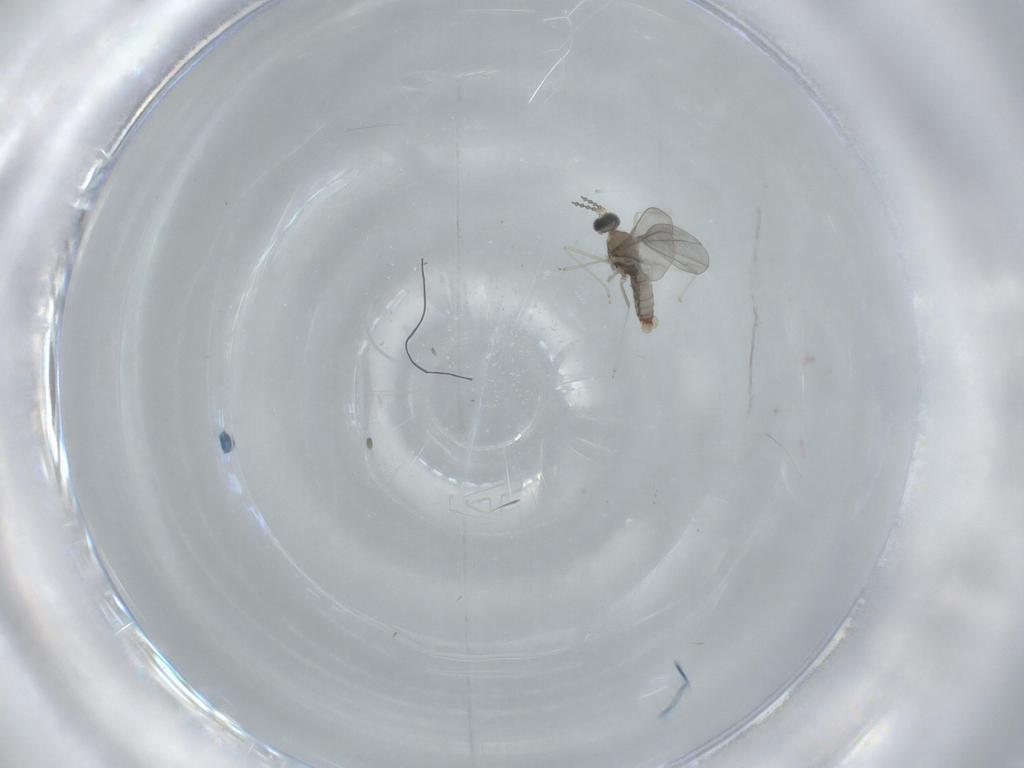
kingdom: Animalia
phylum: Arthropoda
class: Insecta
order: Diptera
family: Cecidomyiidae
